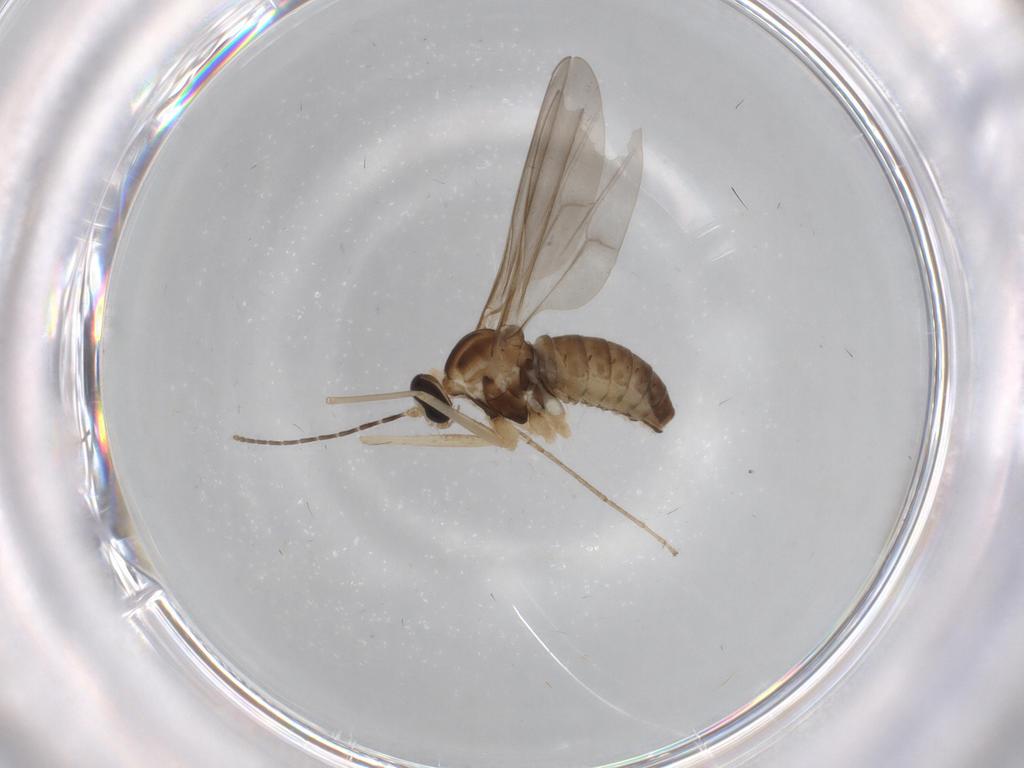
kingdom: Animalia
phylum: Arthropoda
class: Insecta
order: Diptera
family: Cecidomyiidae
